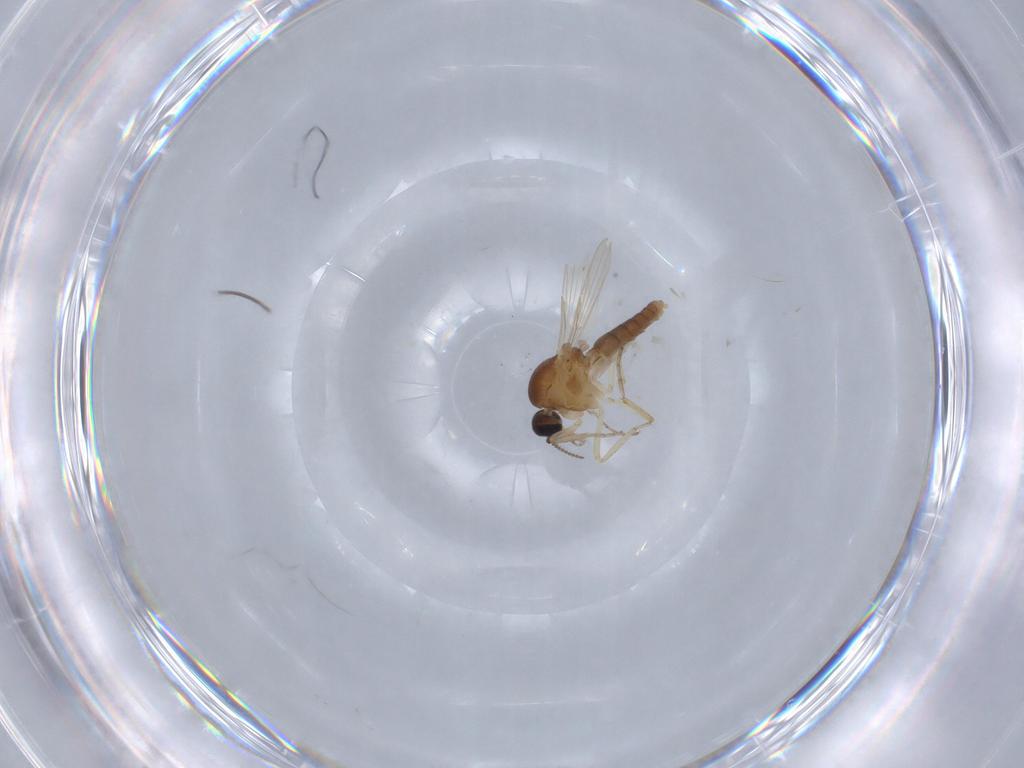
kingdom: Animalia
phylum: Arthropoda
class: Insecta
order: Diptera
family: Ceratopogonidae
